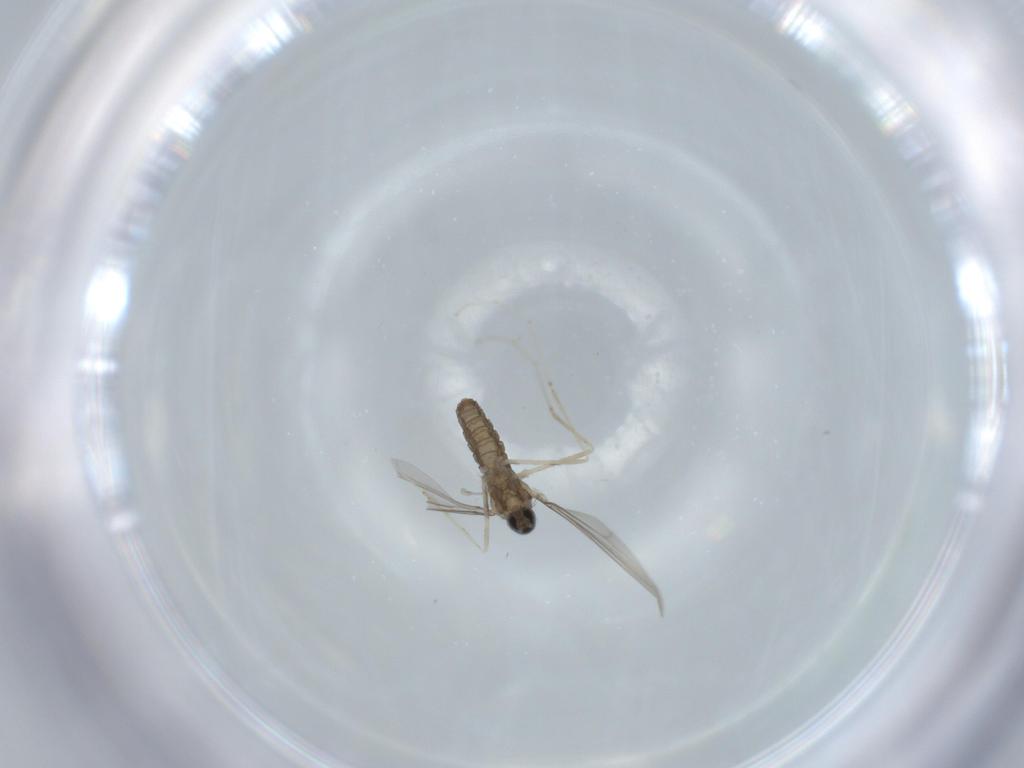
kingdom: Animalia
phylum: Arthropoda
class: Insecta
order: Diptera
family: Cecidomyiidae
